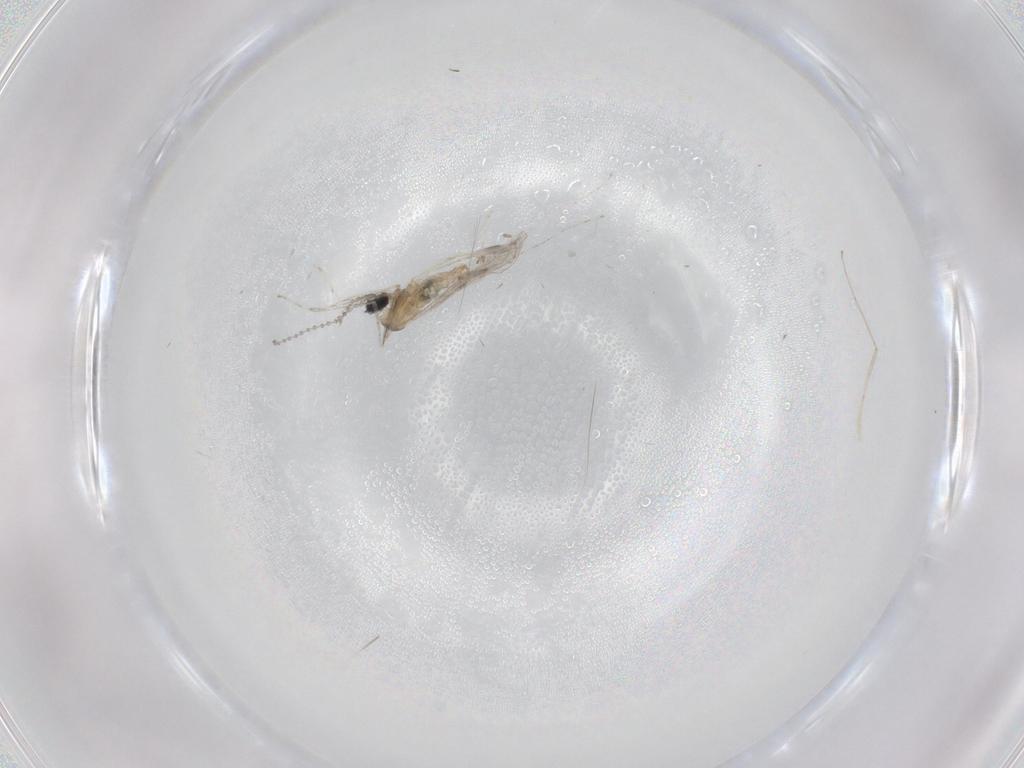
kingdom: Animalia
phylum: Arthropoda
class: Insecta
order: Diptera
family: Cecidomyiidae
